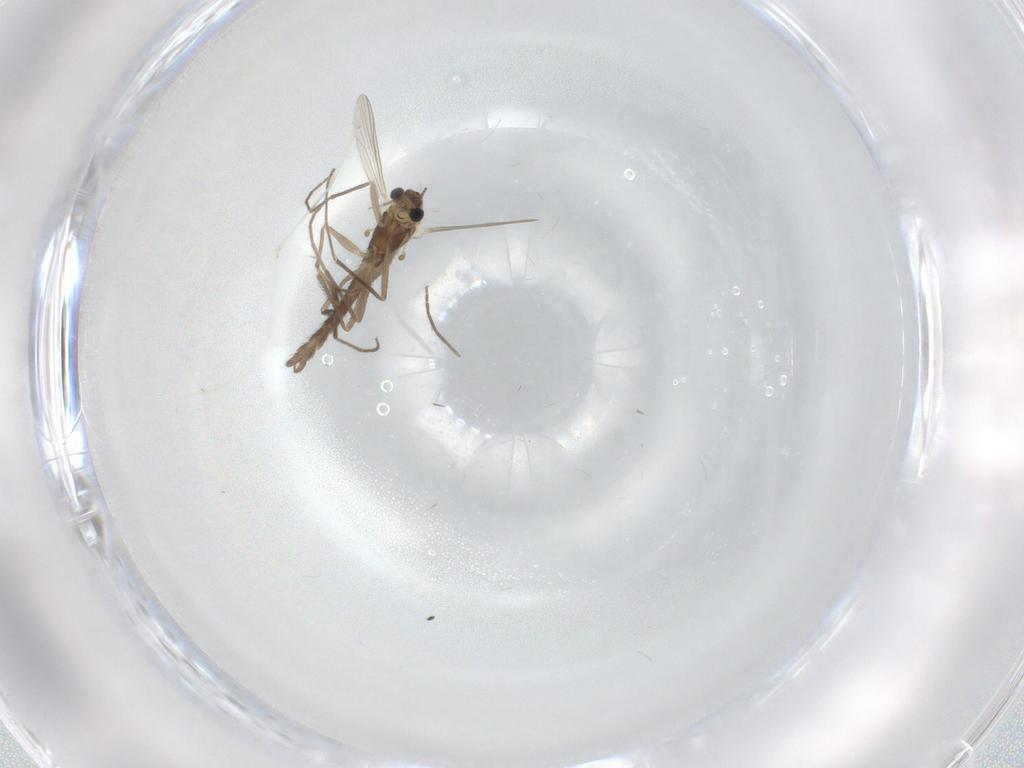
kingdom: Animalia
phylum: Arthropoda
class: Insecta
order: Diptera
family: Chironomidae
